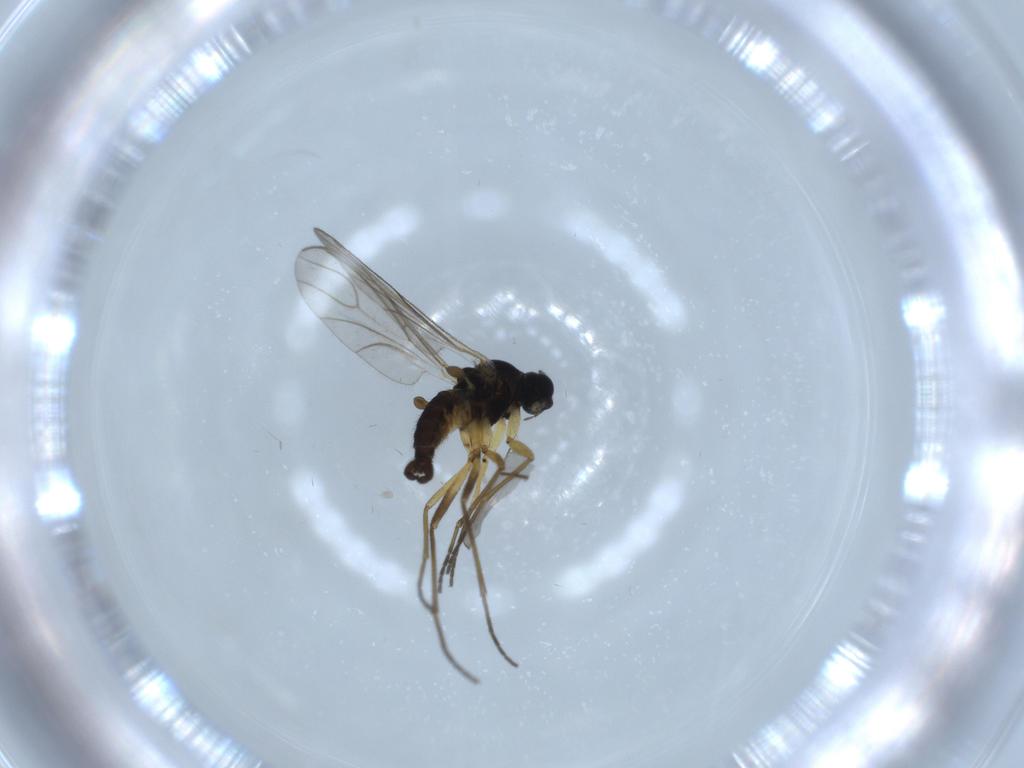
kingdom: Animalia
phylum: Arthropoda
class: Insecta
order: Diptera
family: Sciaridae
